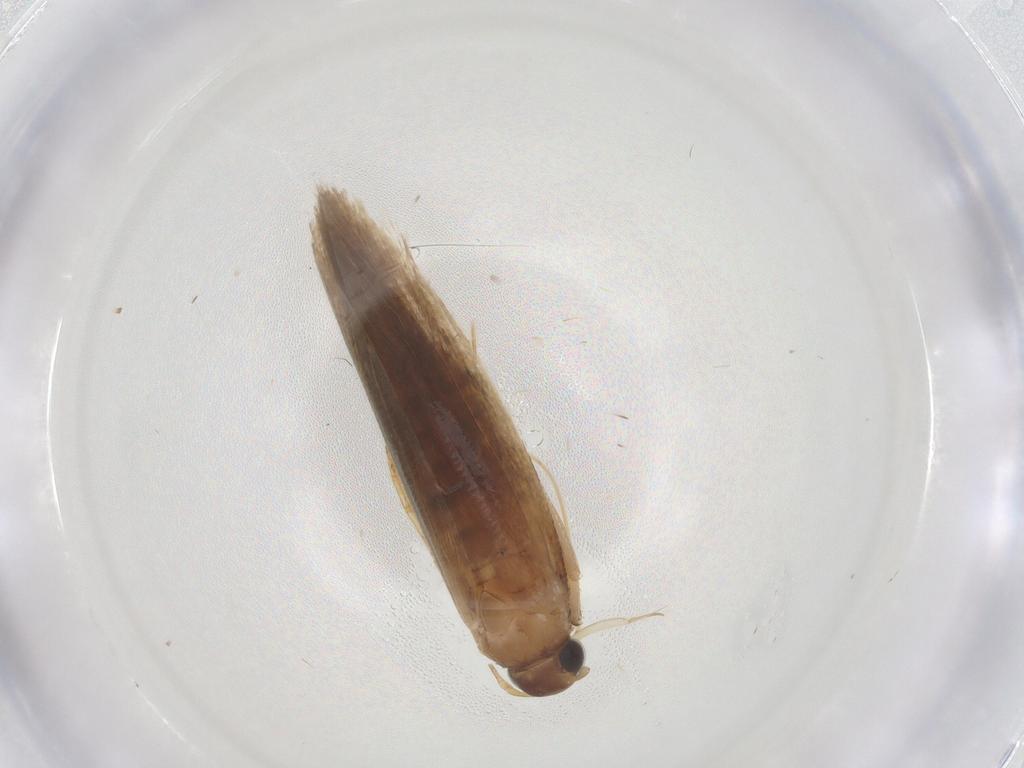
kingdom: Animalia
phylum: Arthropoda
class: Insecta
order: Lepidoptera
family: Gelechiidae
